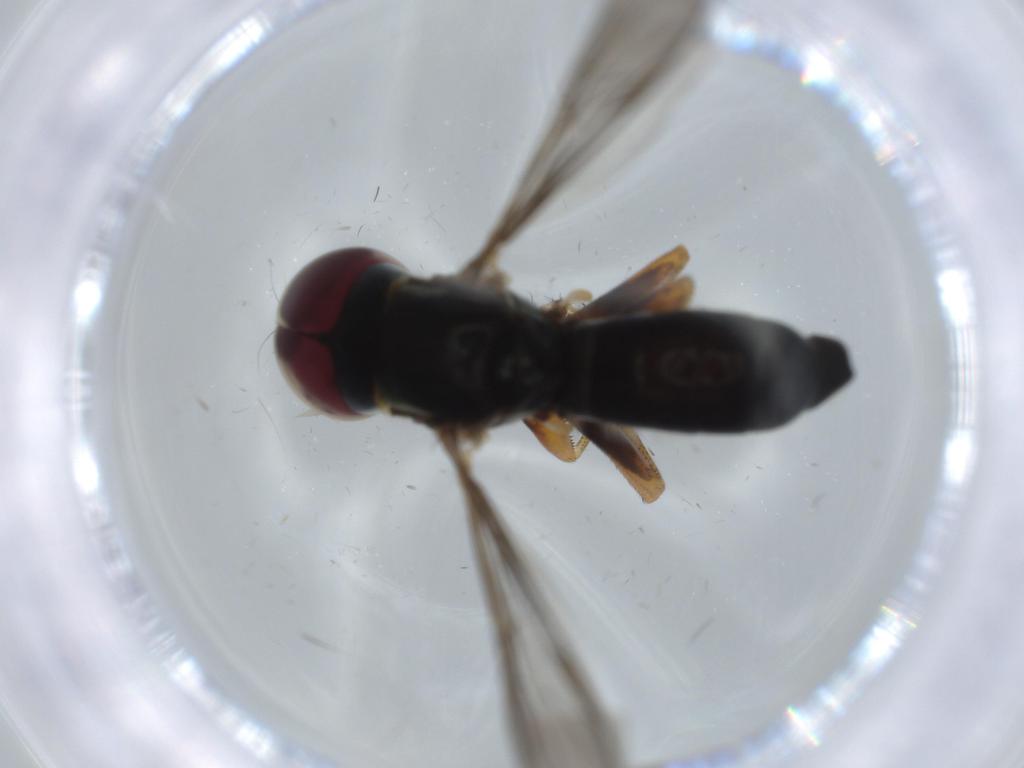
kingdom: Animalia
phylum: Arthropoda
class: Insecta
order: Diptera
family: Pipunculidae
